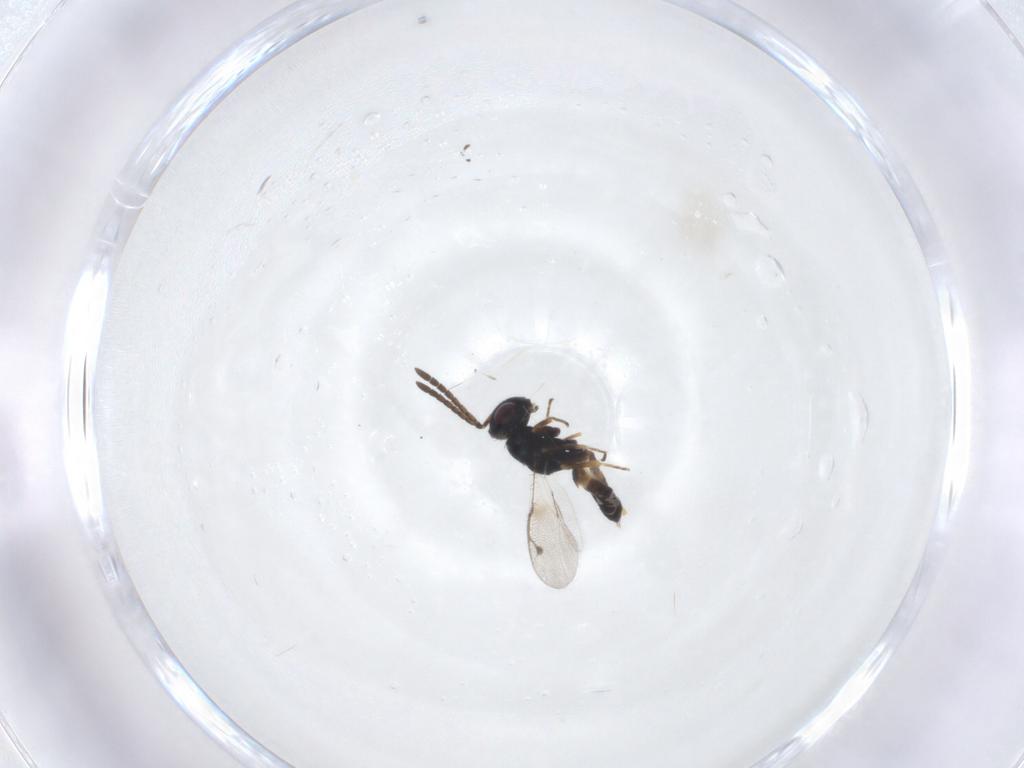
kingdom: Animalia
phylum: Arthropoda
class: Insecta
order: Hymenoptera
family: Pteromalidae
